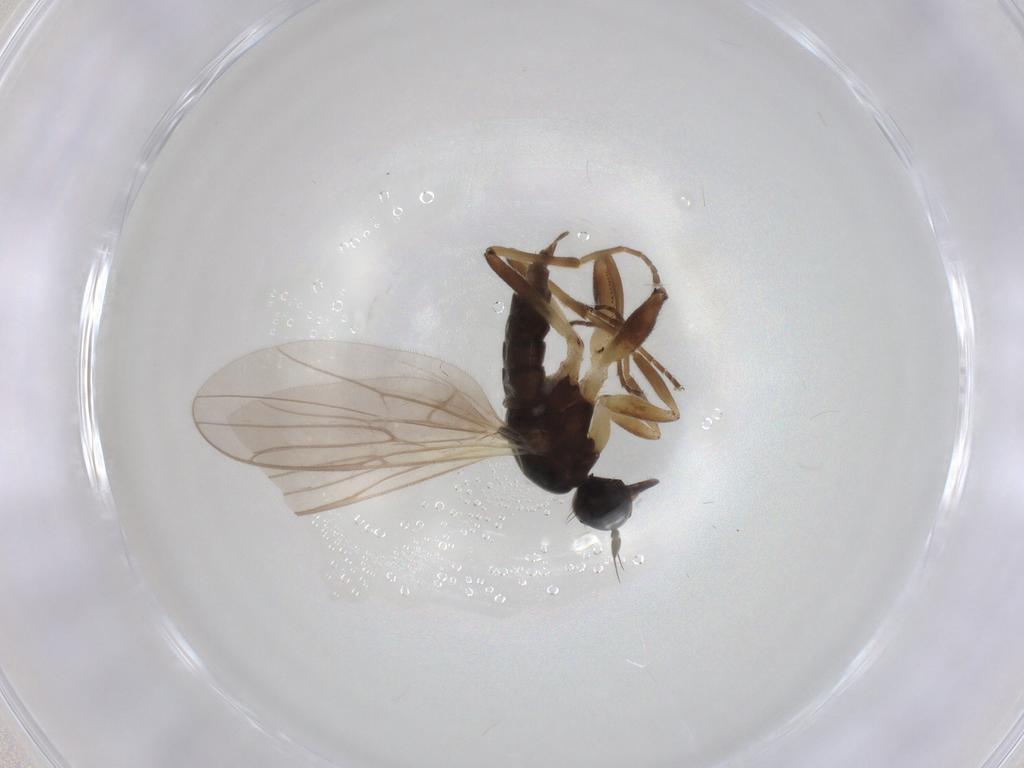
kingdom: Animalia
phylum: Arthropoda
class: Insecta
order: Diptera
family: Hybotidae
